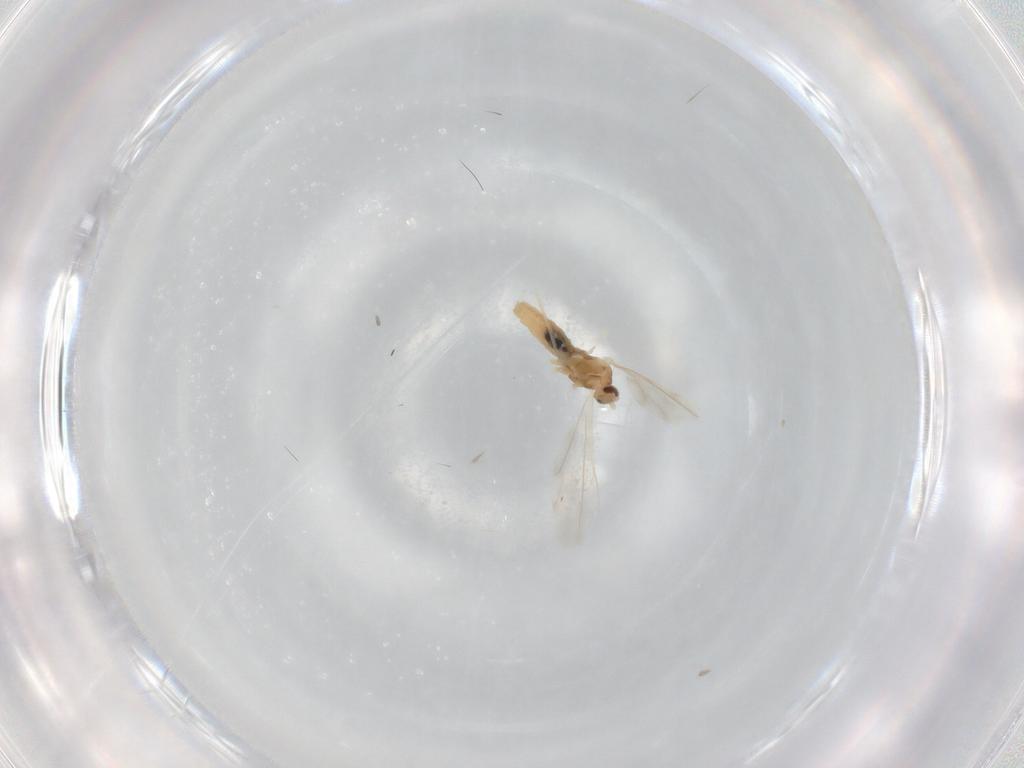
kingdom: Animalia
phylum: Arthropoda
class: Insecta
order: Diptera
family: Cecidomyiidae
